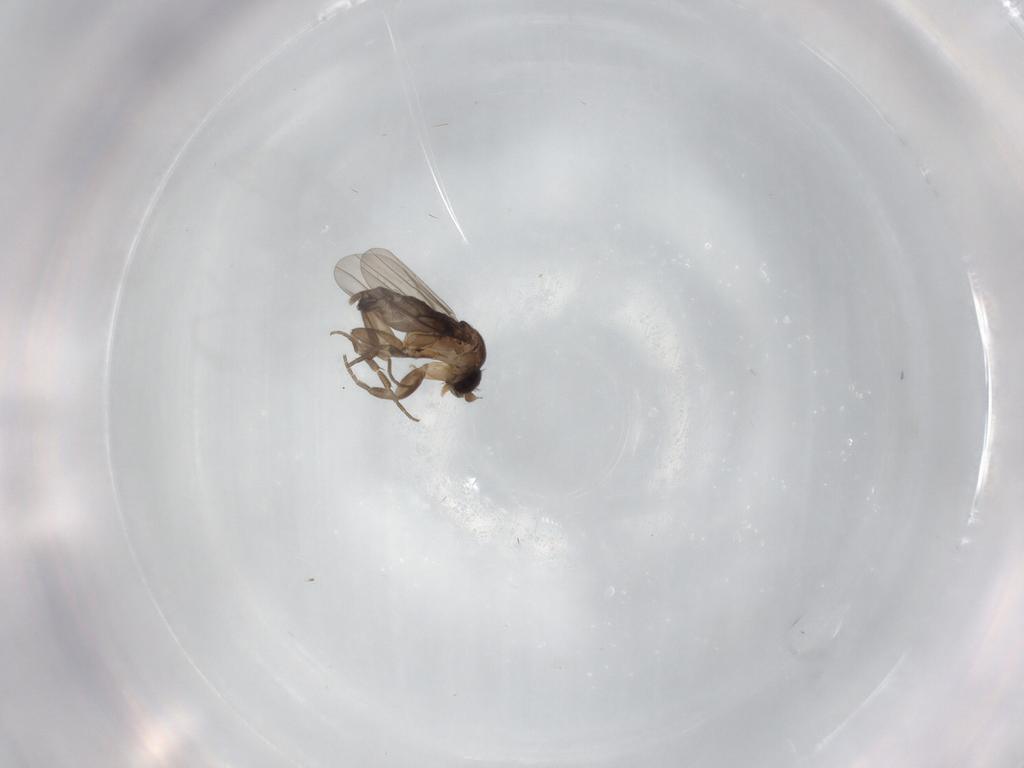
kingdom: Animalia
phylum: Arthropoda
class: Insecta
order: Diptera
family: Phoridae
